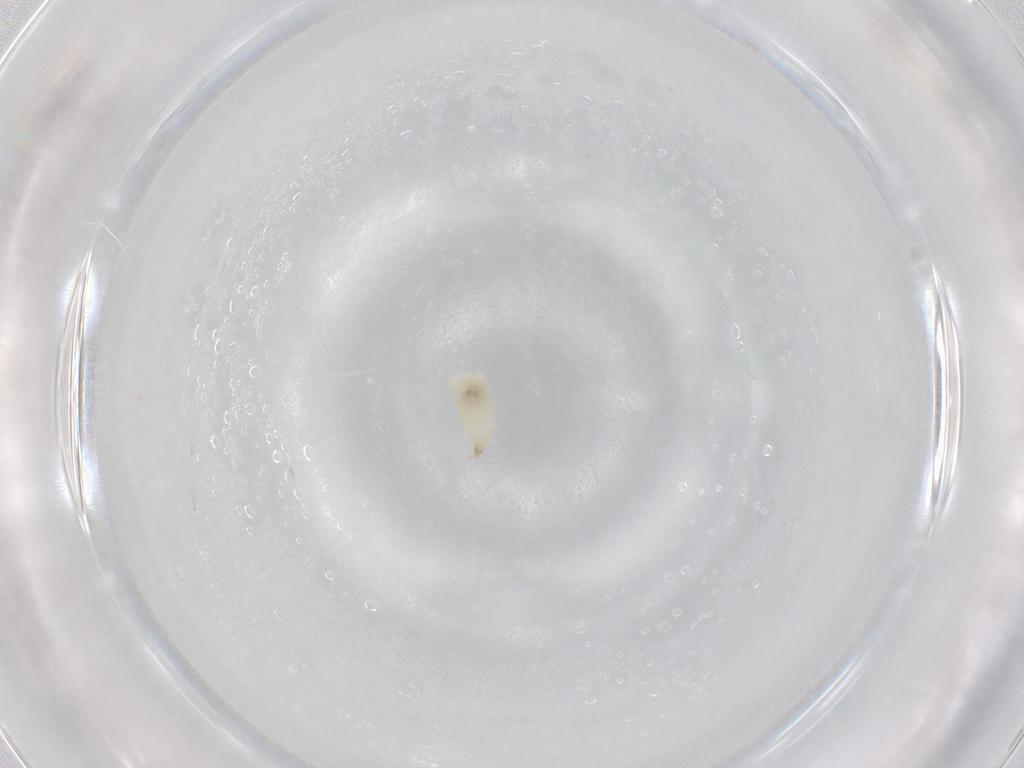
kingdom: Animalia
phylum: Arthropoda
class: Insecta
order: Diptera
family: Cecidomyiidae
